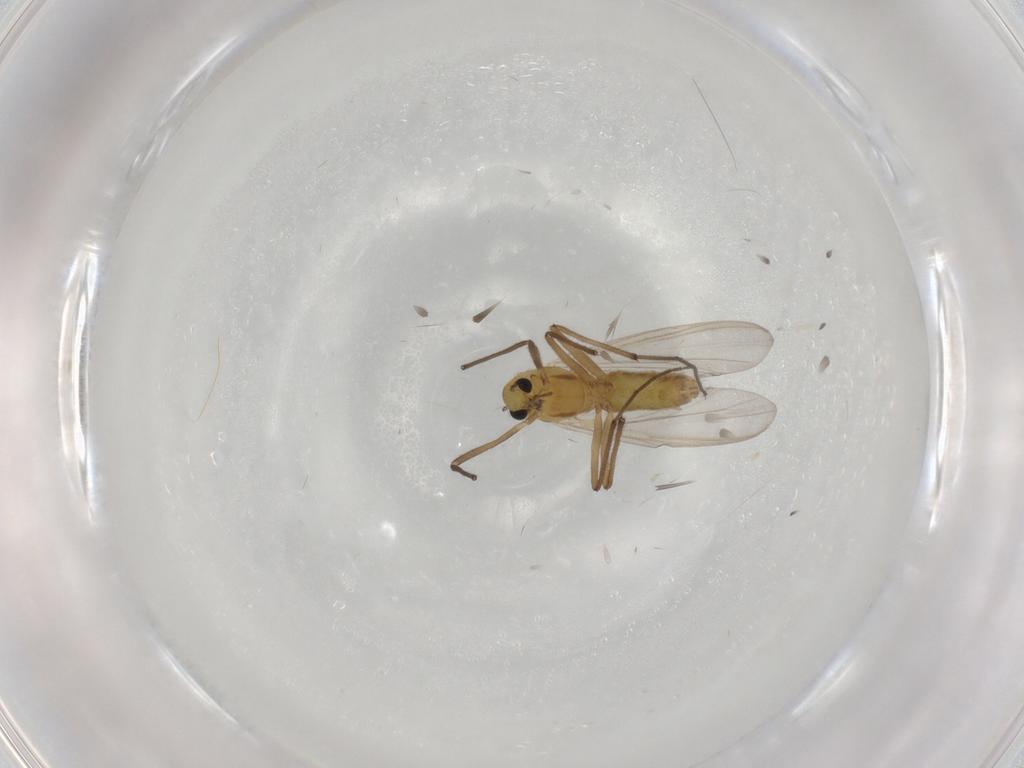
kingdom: Animalia
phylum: Arthropoda
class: Insecta
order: Diptera
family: Chironomidae
